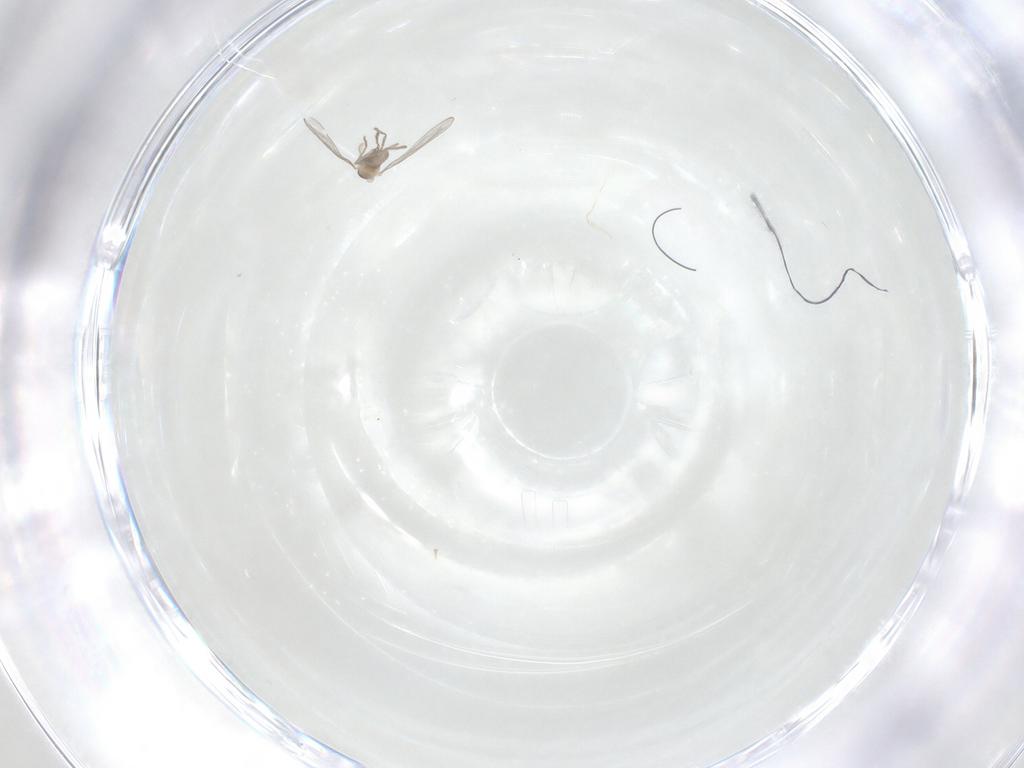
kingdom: Animalia
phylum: Arthropoda
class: Insecta
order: Diptera
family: Cecidomyiidae
